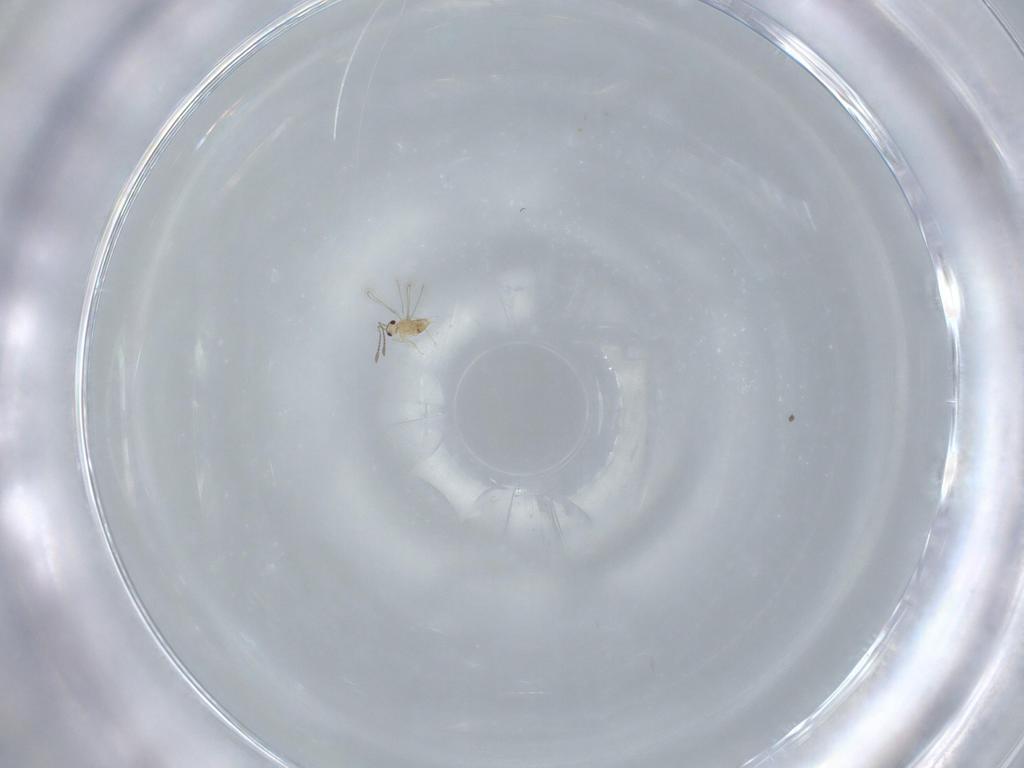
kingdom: Animalia
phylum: Arthropoda
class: Insecta
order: Hymenoptera
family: Mymaridae
